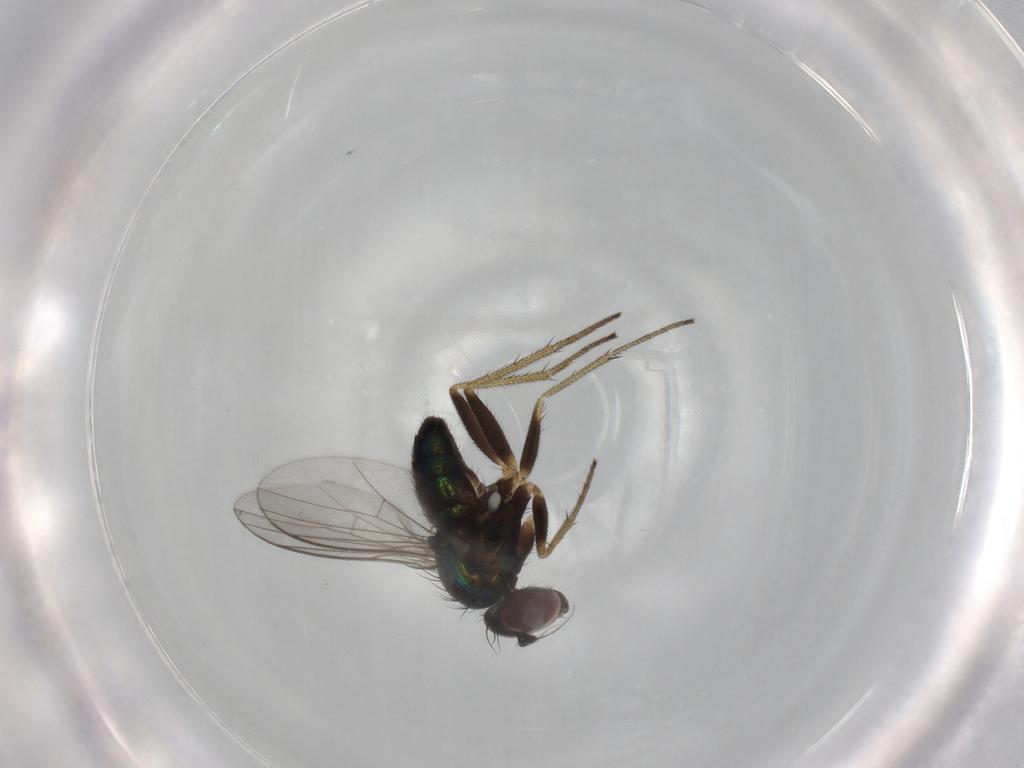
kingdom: Animalia
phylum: Arthropoda
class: Insecta
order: Diptera
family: Dolichopodidae
